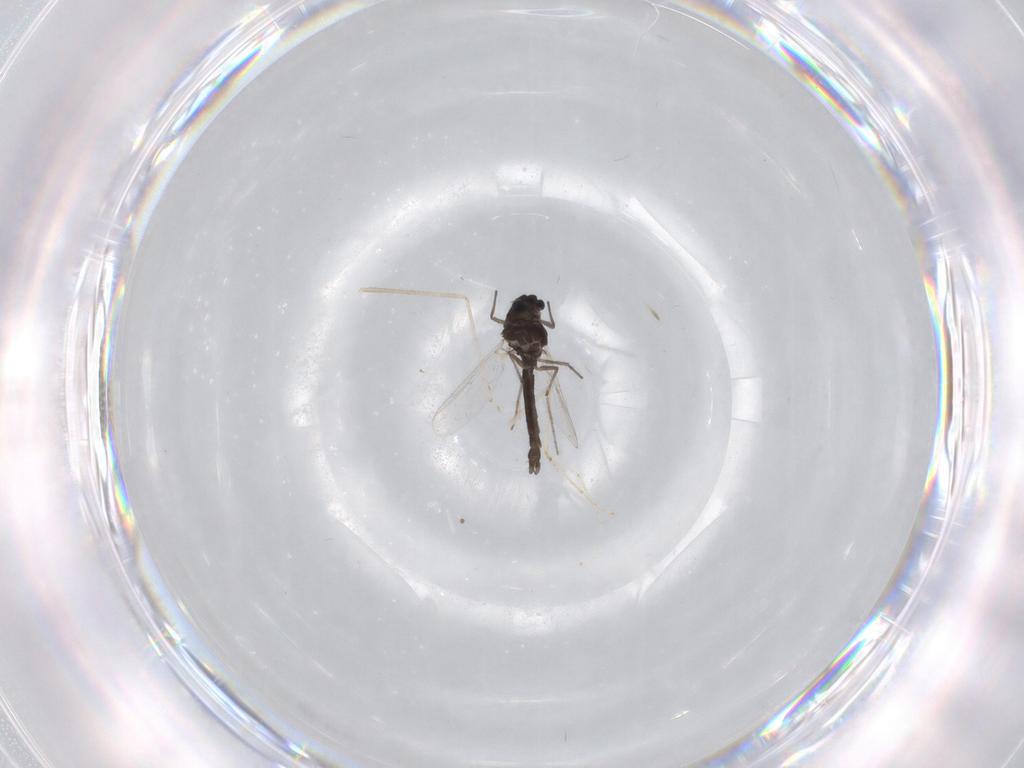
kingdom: Animalia
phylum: Arthropoda
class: Insecta
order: Diptera
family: Chironomidae
